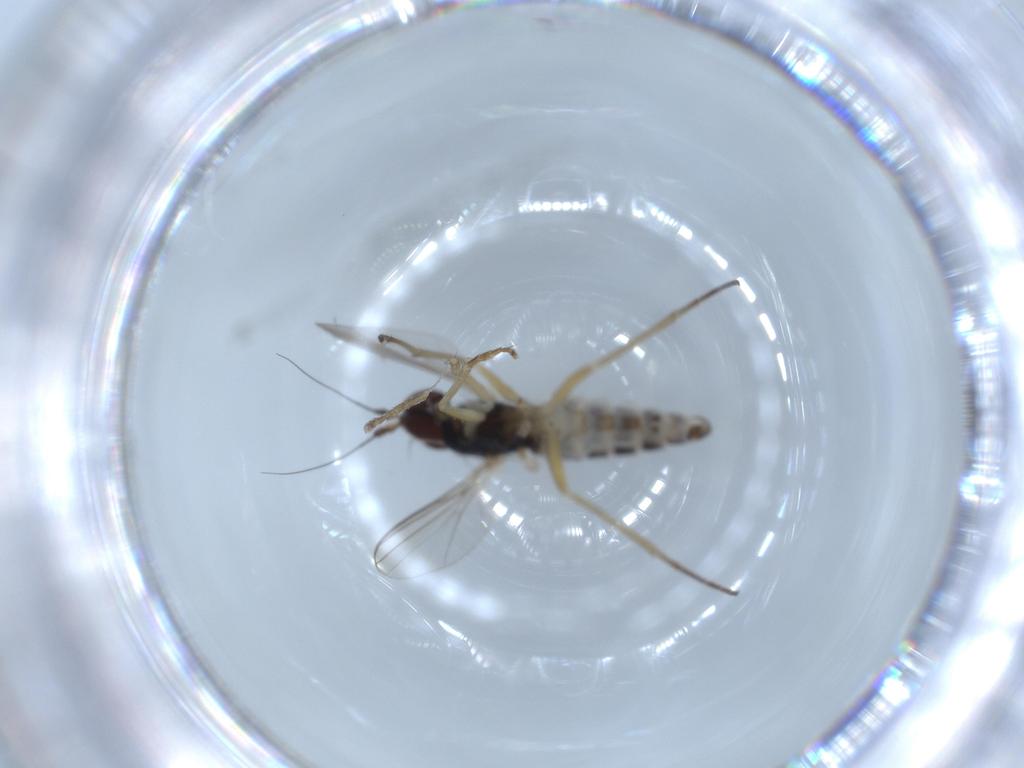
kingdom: Animalia
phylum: Arthropoda
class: Insecta
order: Diptera
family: Dolichopodidae
